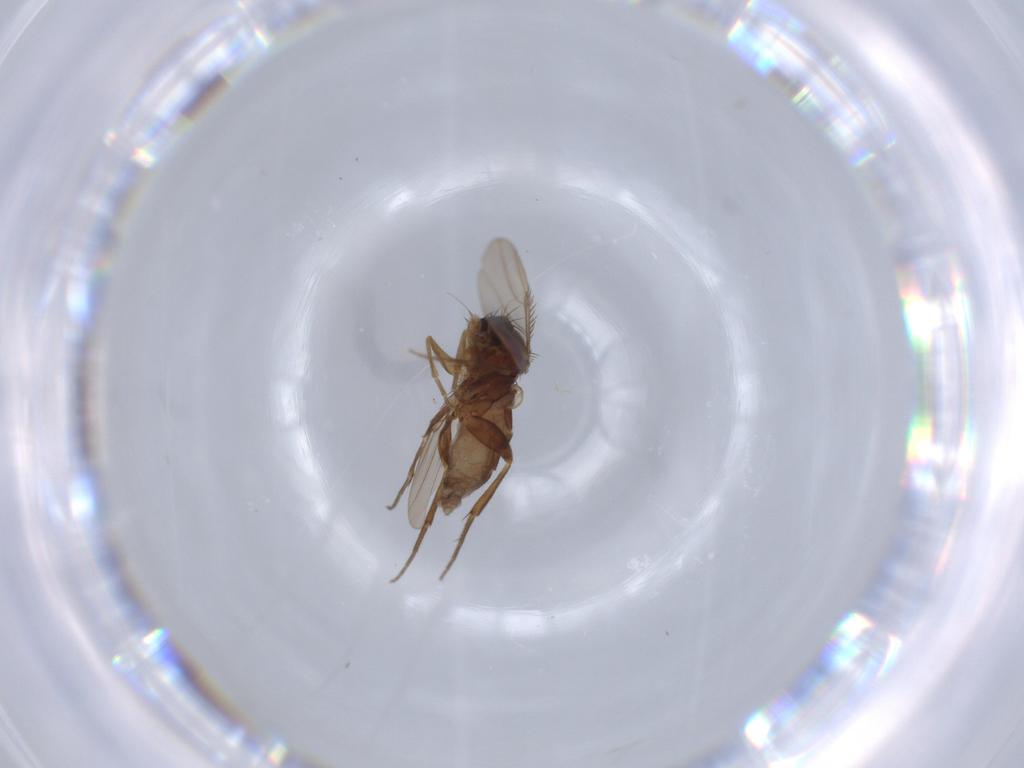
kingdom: Animalia
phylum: Arthropoda
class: Insecta
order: Diptera
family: Phoridae
